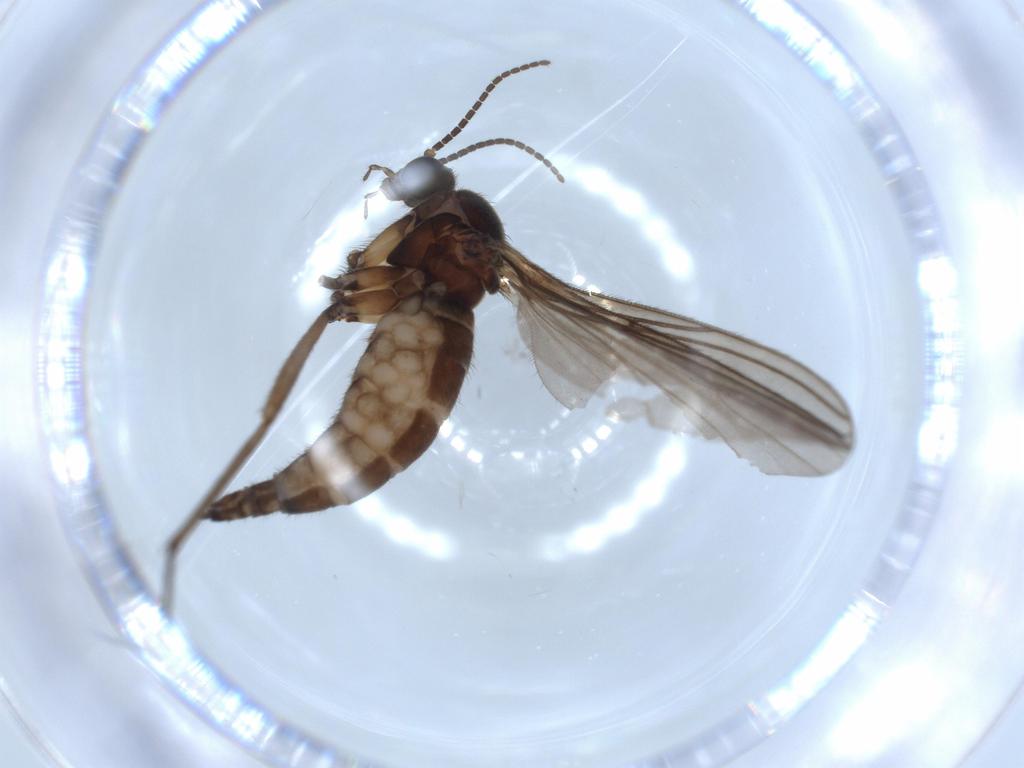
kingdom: Animalia
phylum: Arthropoda
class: Insecta
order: Diptera
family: Sciaridae
